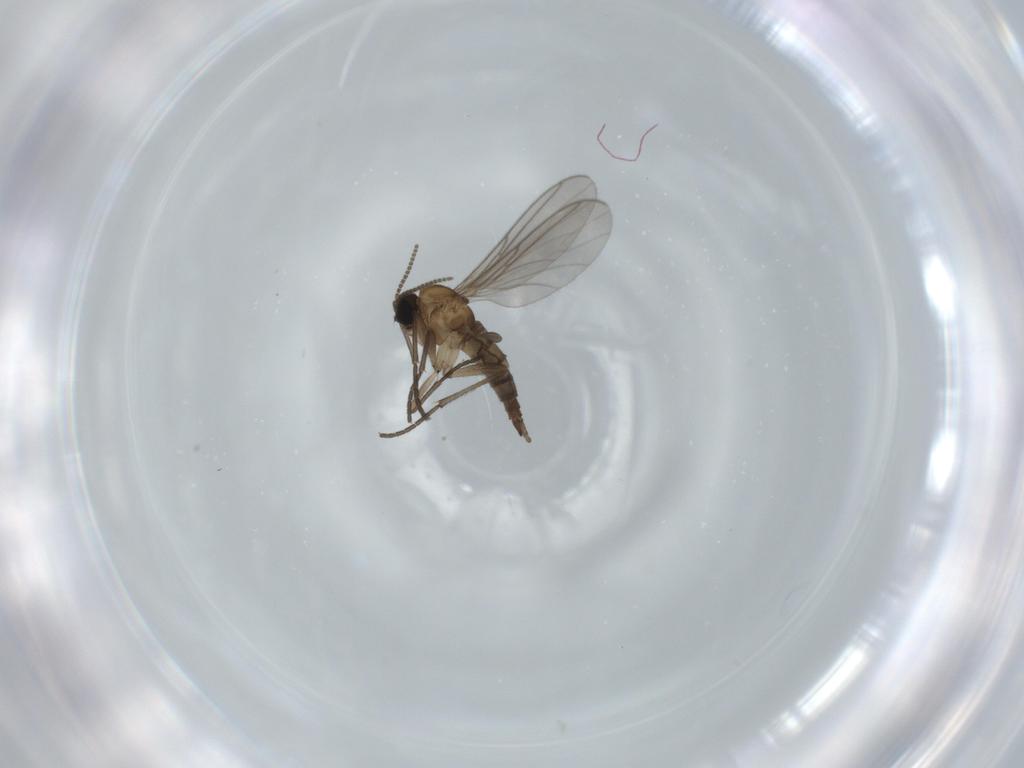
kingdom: Animalia
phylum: Arthropoda
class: Insecta
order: Diptera
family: Sciaridae
